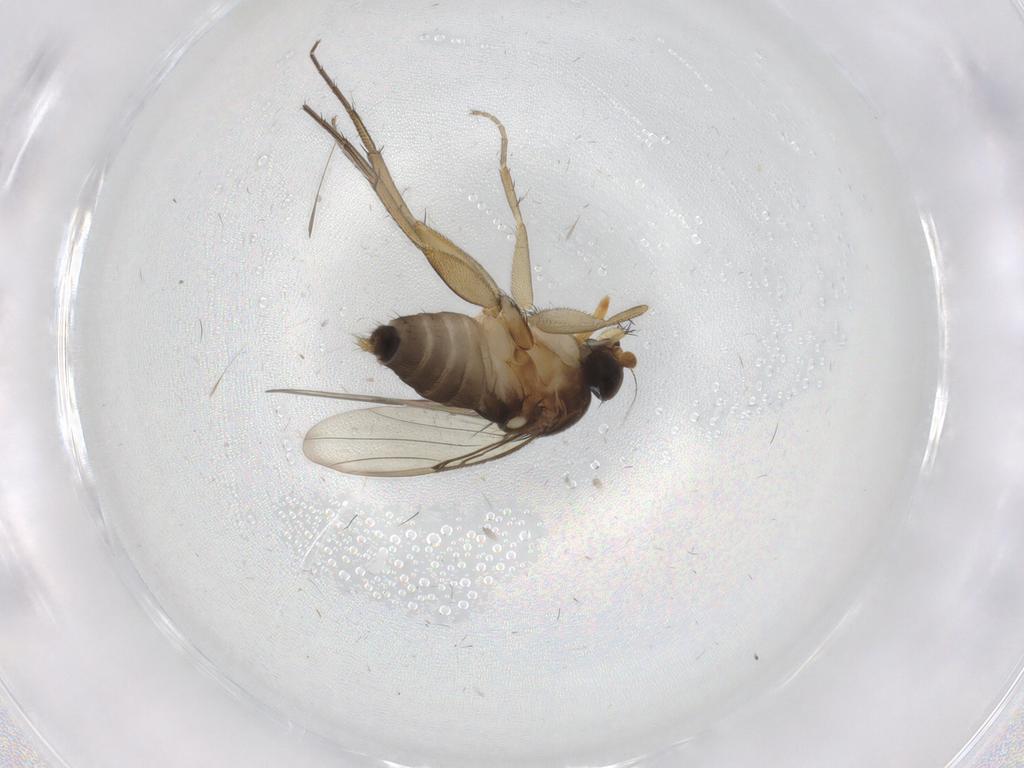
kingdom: Animalia
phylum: Arthropoda
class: Insecta
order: Diptera
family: Phoridae
